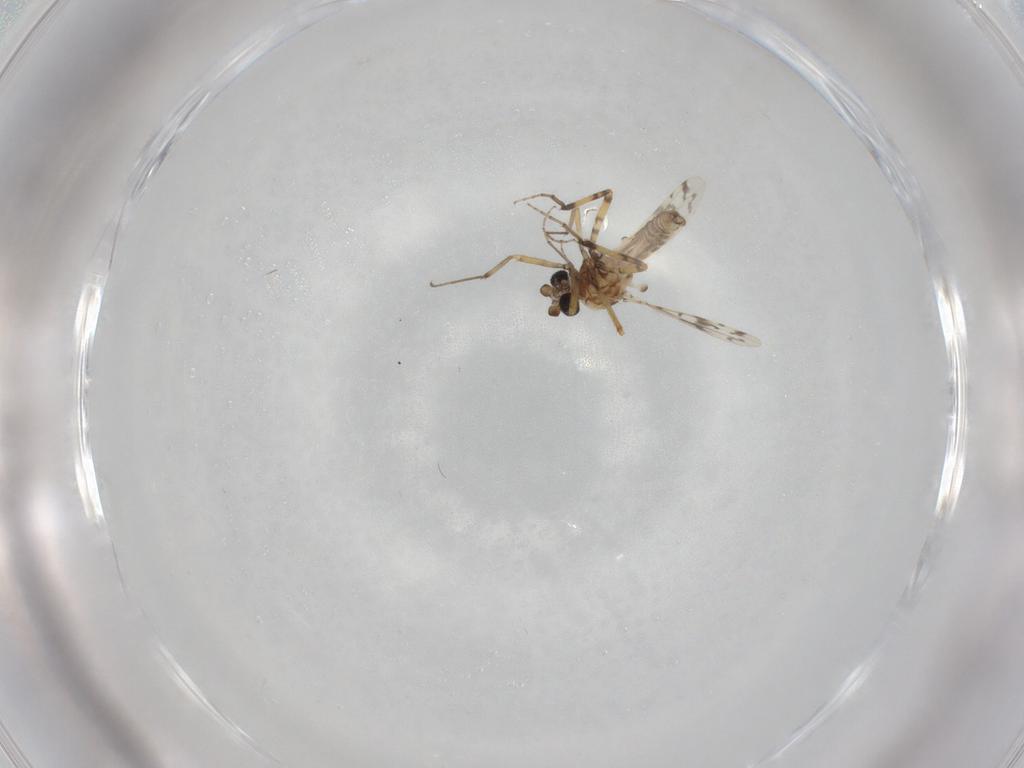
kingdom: Animalia
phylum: Arthropoda
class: Insecta
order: Diptera
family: Ceratopogonidae
